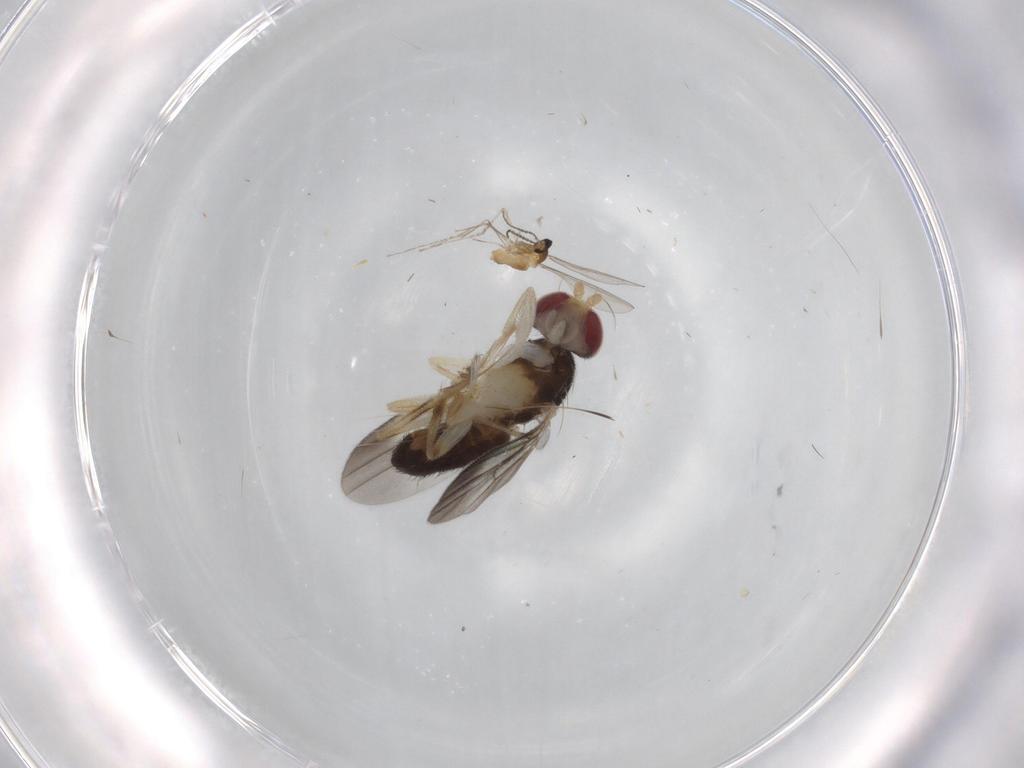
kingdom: Animalia
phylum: Arthropoda
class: Insecta
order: Diptera
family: Clusiidae
